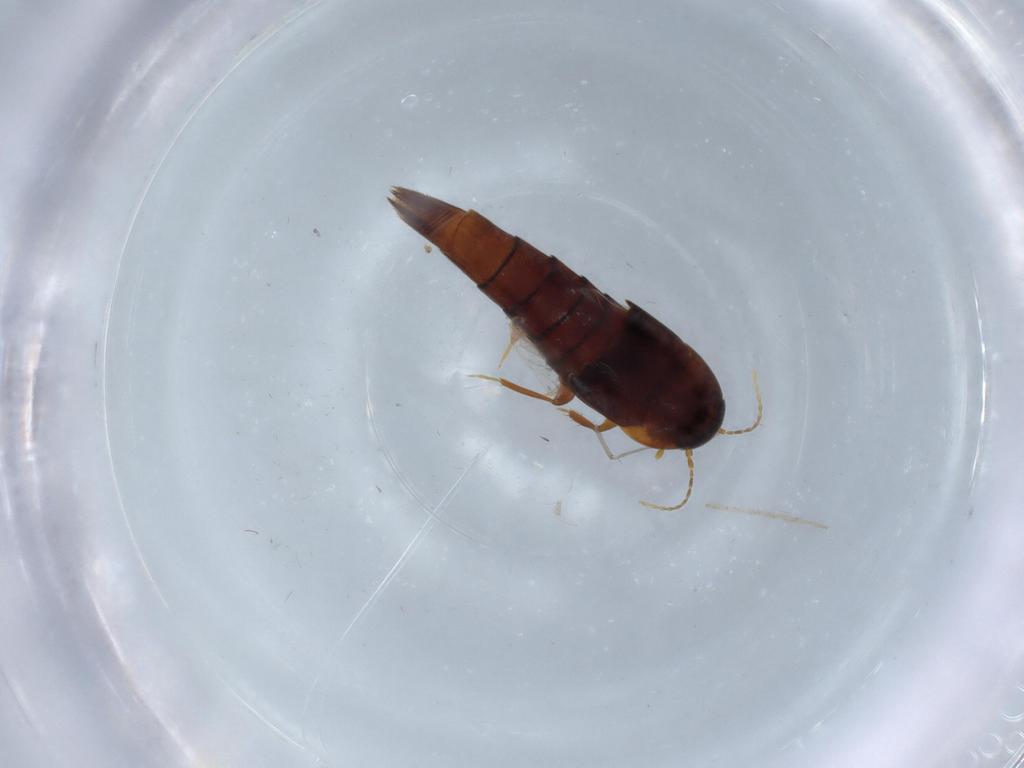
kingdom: Animalia
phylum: Arthropoda
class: Insecta
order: Coleoptera
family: Staphylinidae
